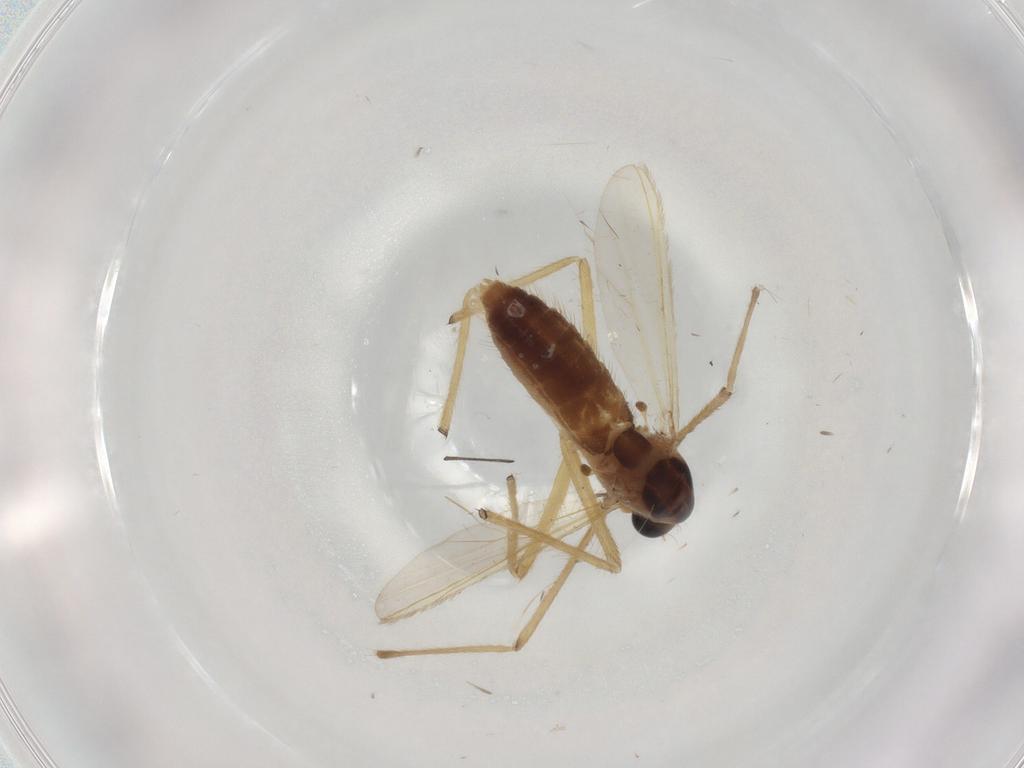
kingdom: Animalia
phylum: Arthropoda
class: Insecta
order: Diptera
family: Chironomidae
